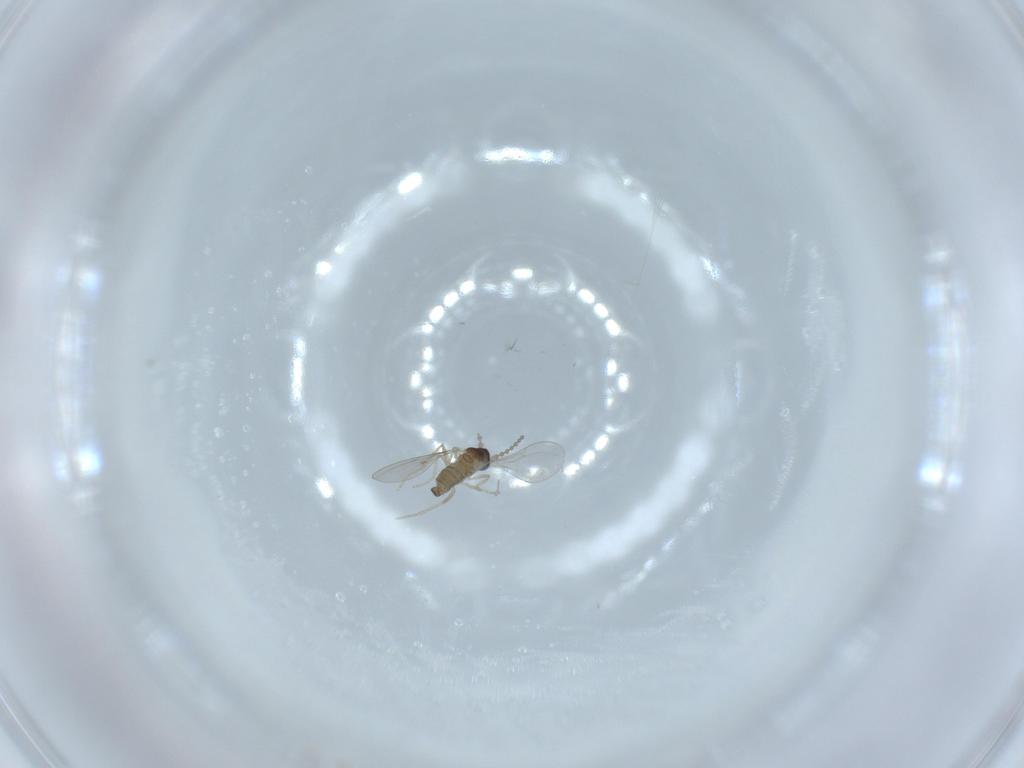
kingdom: Animalia
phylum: Arthropoda
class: Insecta
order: Diptera
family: Cecidomyiidae
